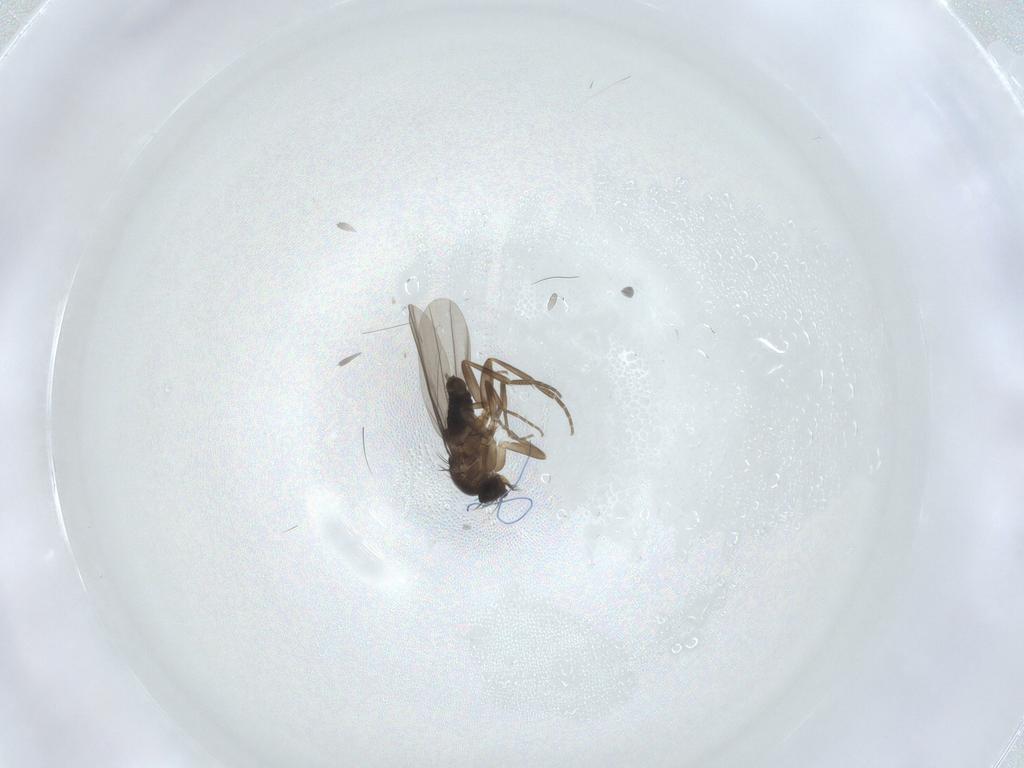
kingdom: Animalia
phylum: Arthropoda
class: Insecta
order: Diptera
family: Phoridae
